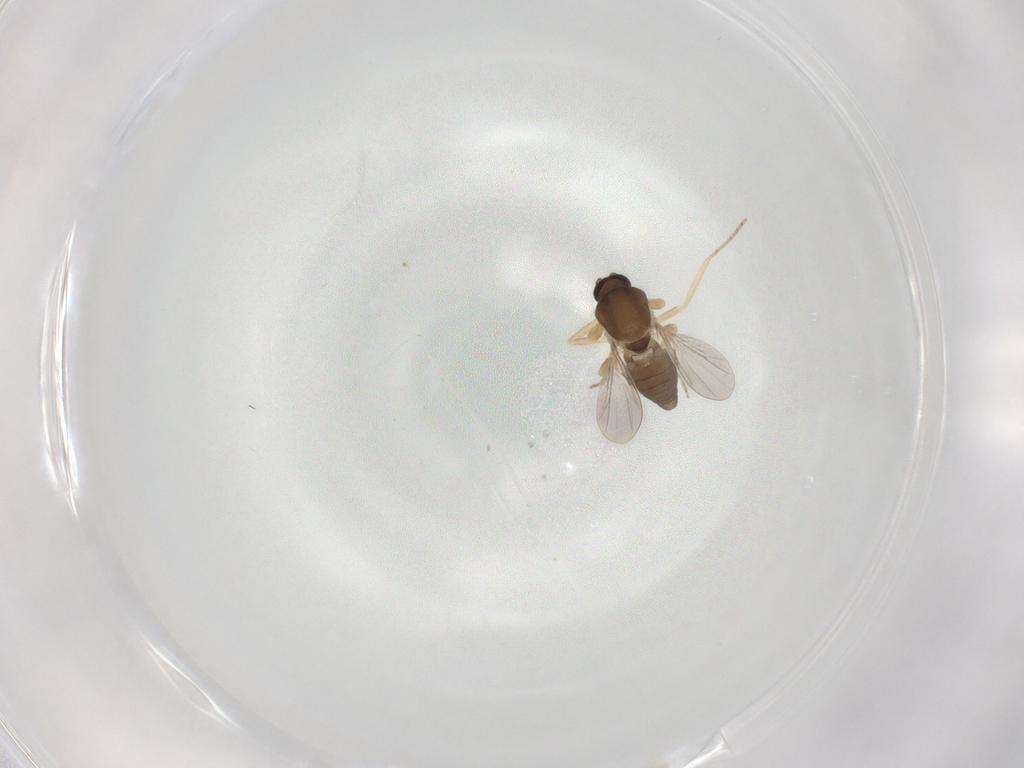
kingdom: Animalia
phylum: Arthropoda
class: Insecta
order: Diptera
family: Ceratopogonidae
